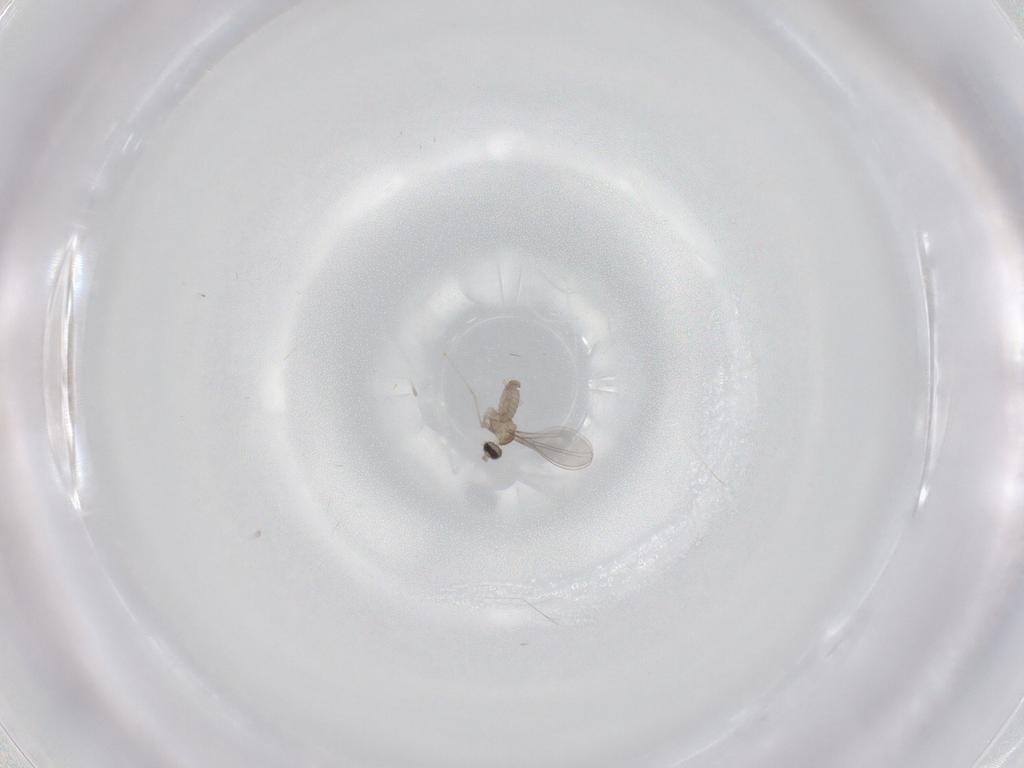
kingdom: Animalia
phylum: Arthropoda
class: Insecta
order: Diptera
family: Cecidomyiidae
